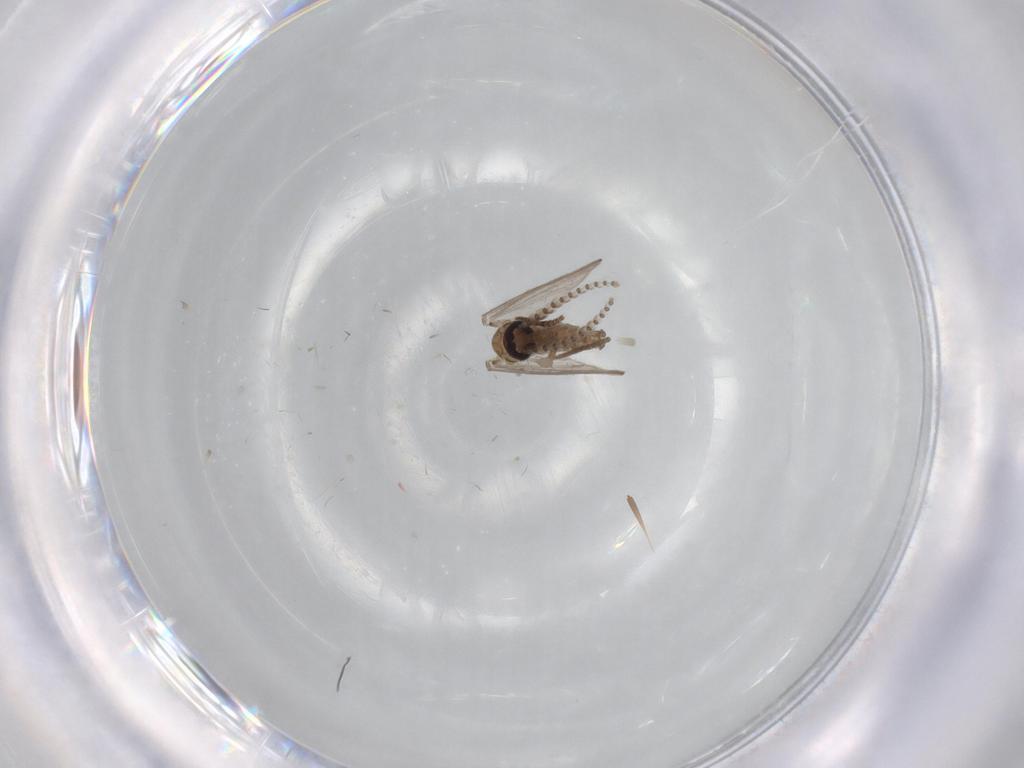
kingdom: Animalia
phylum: Arthropoda
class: Insecta
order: Diptera
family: Psychodidae
